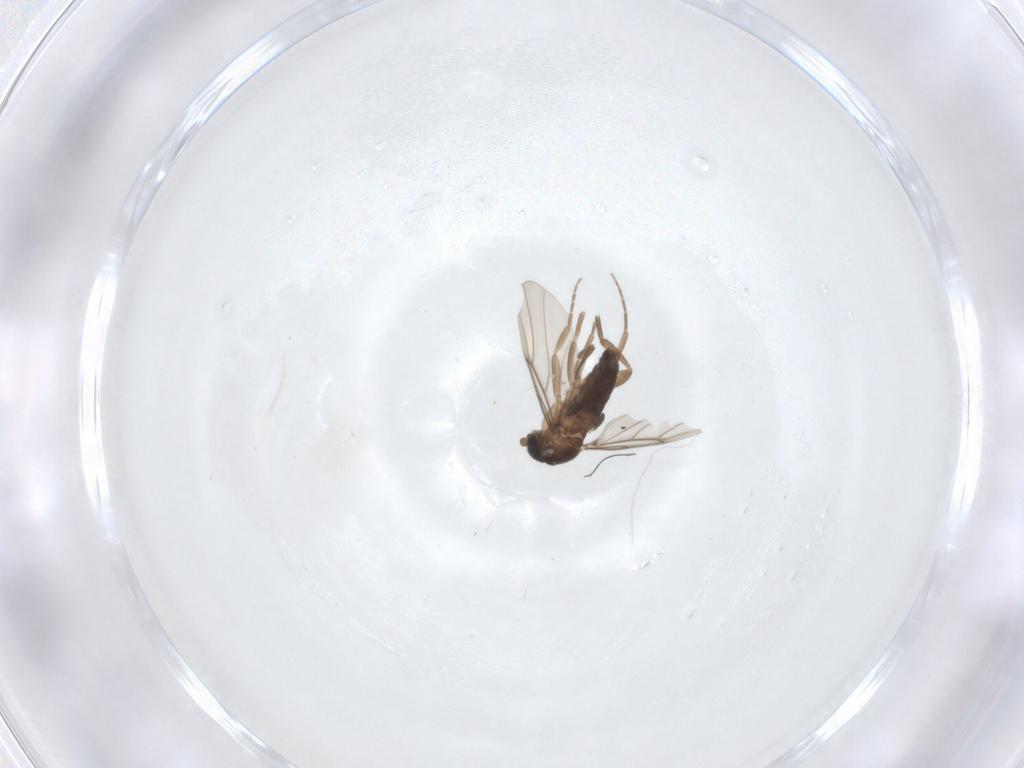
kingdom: Animalia
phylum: Arthropoda
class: Insecta
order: Diptera
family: Phoridae
